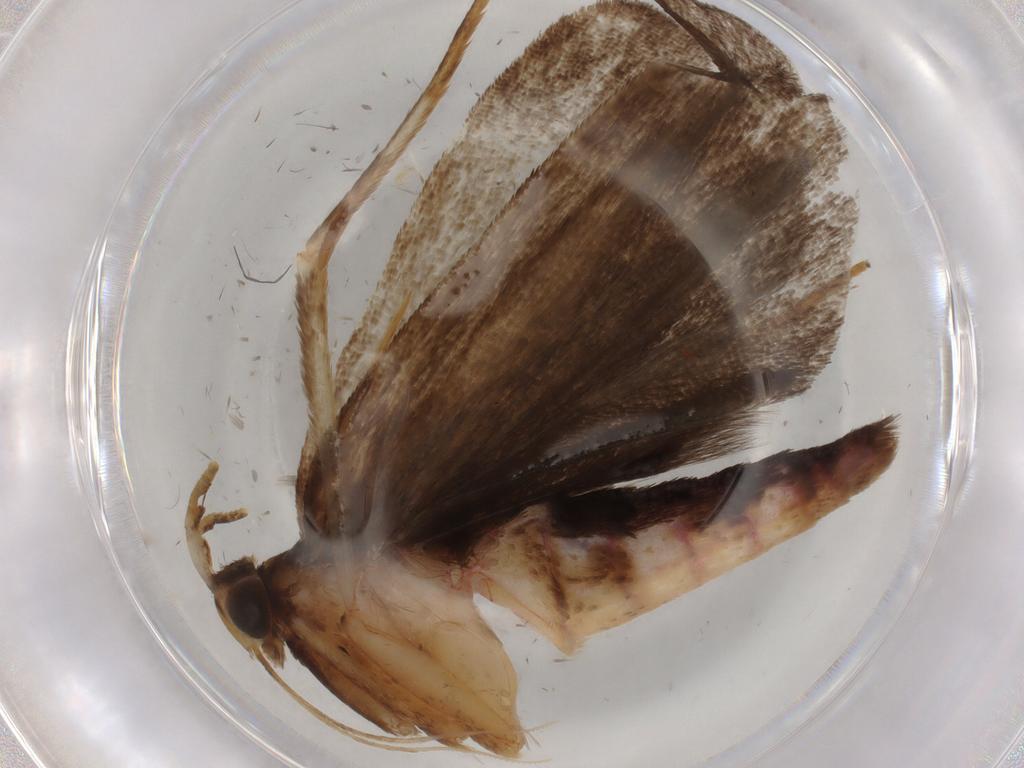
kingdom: Animalia
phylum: Arthropoda
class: Insecta
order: Lepidoptera
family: Autostichidae
